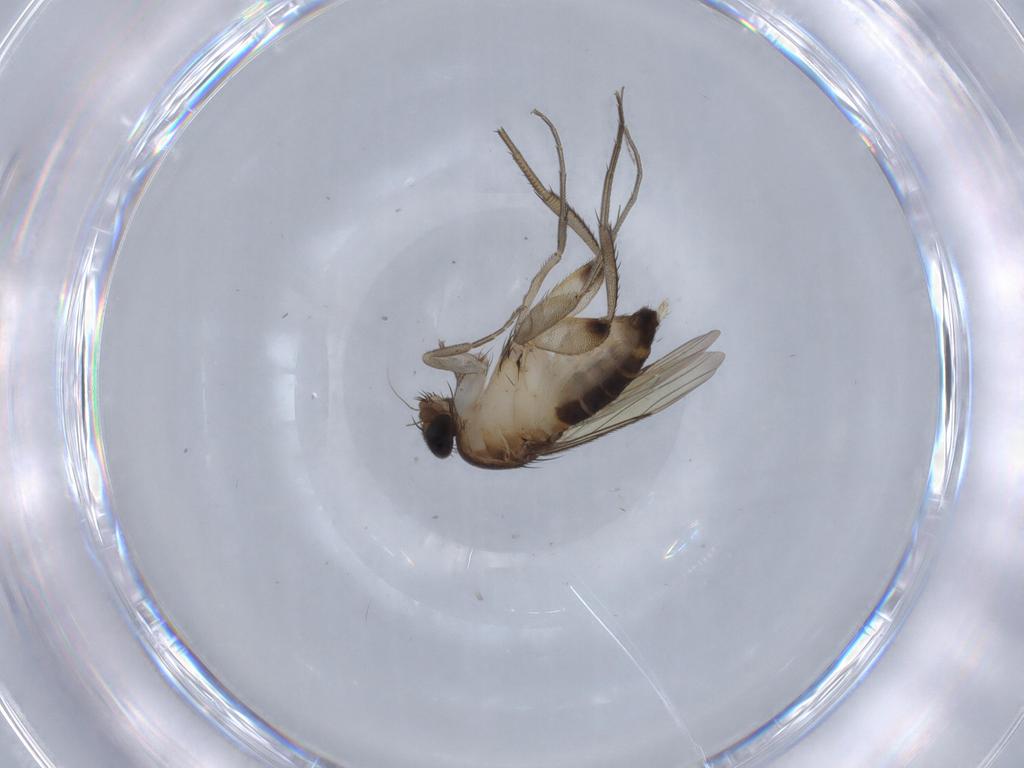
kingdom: Animalia
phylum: Arthropoda
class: Insecta
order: Diptera
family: Phoridae
